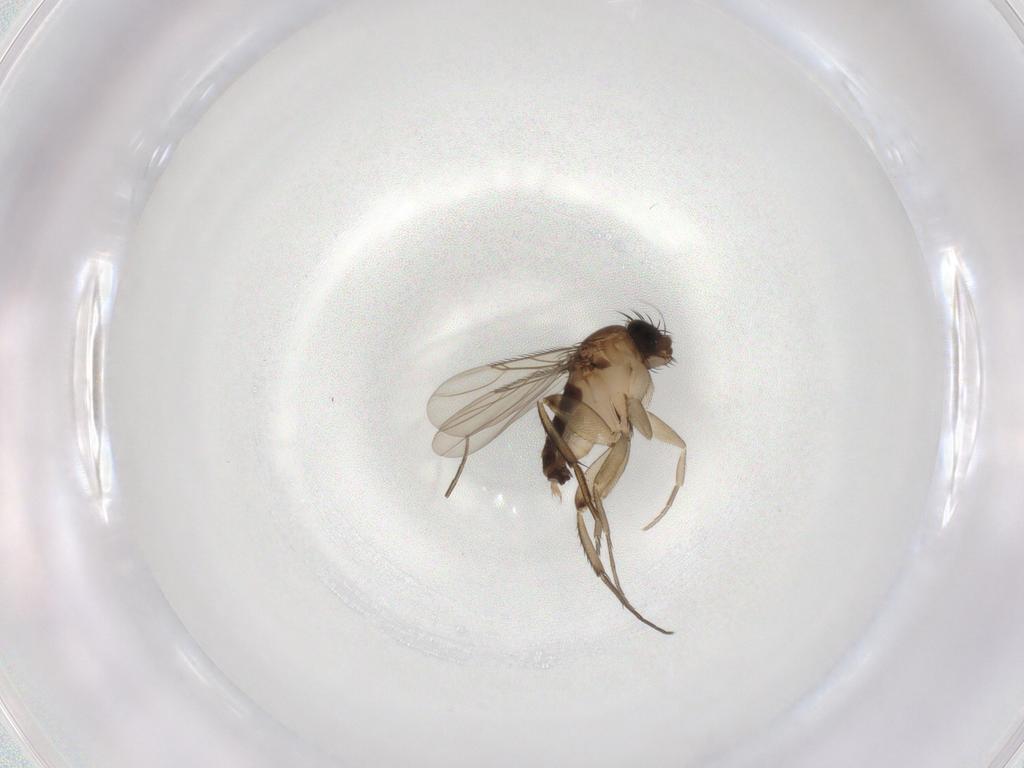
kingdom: Animalia
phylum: Arthropoda
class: Insecta
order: Diptera
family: Phoridae
